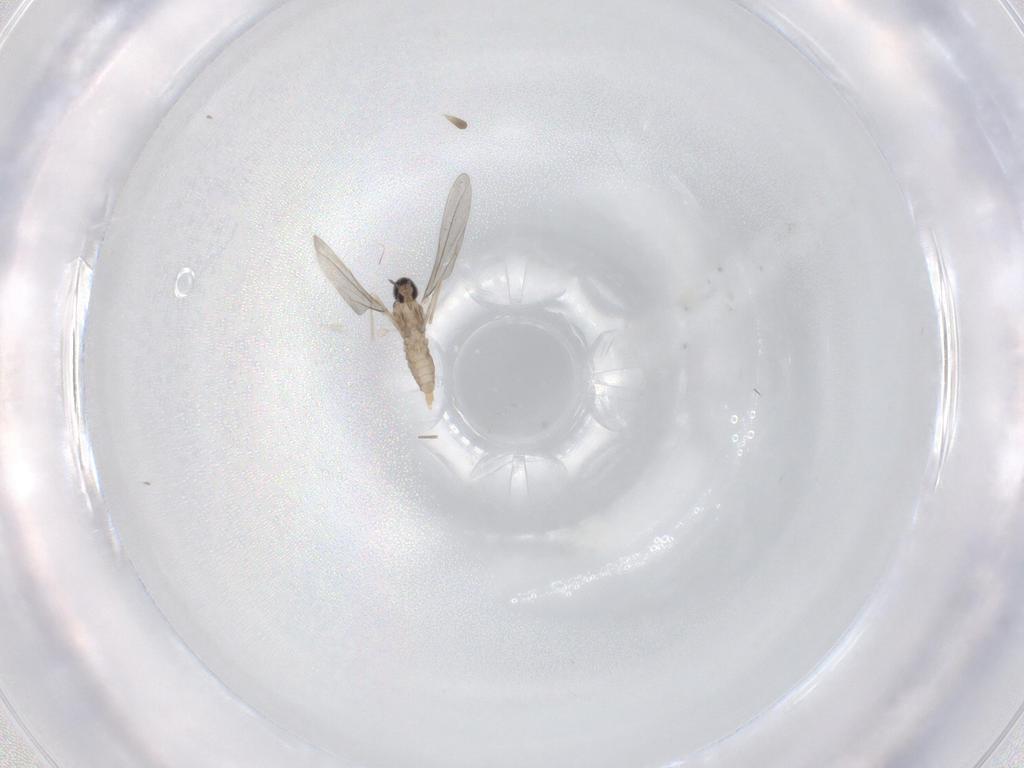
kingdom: Animalia
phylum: Arthropoda
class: Insecta
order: Diptera
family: Cecidomyiidae
